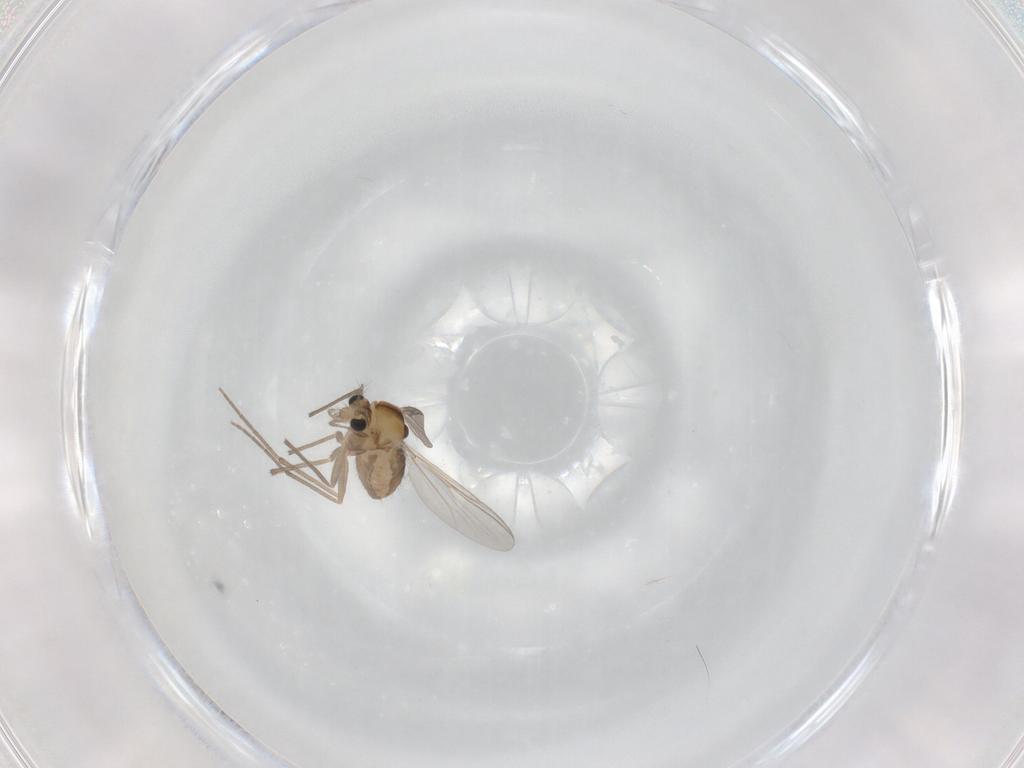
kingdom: Animalia
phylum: Arthropoda
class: Insecta
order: Diptera
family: Chironomidae
